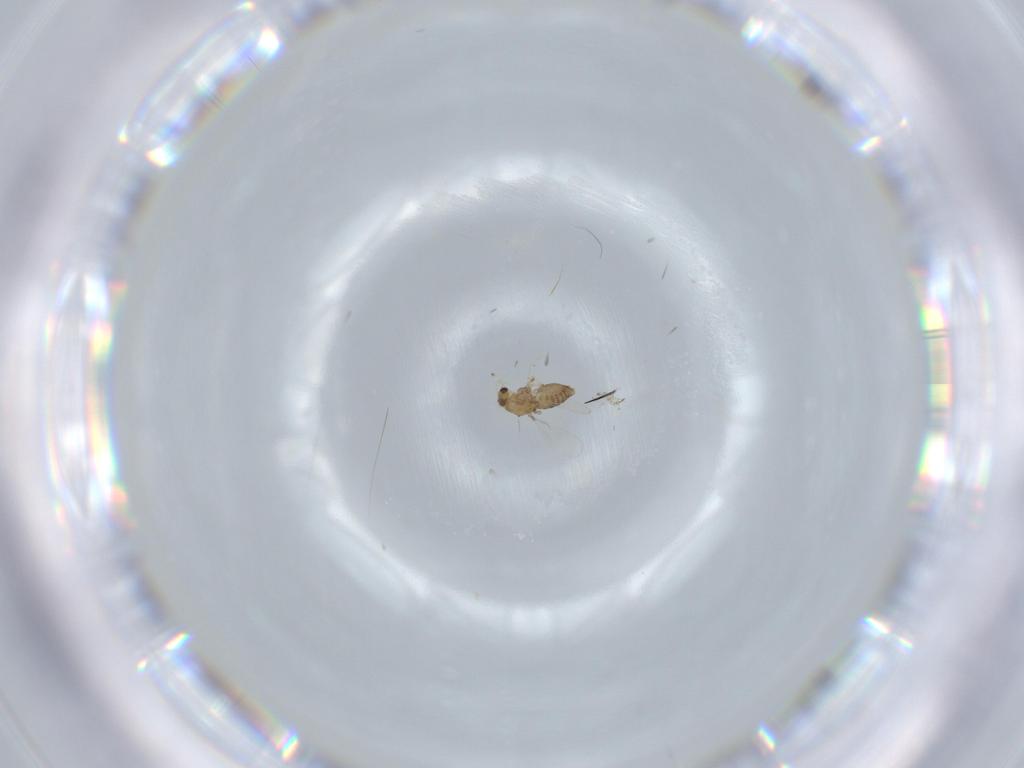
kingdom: Animalia
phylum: Arthropoda
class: Insecta
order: Diptera
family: Chironomidae
